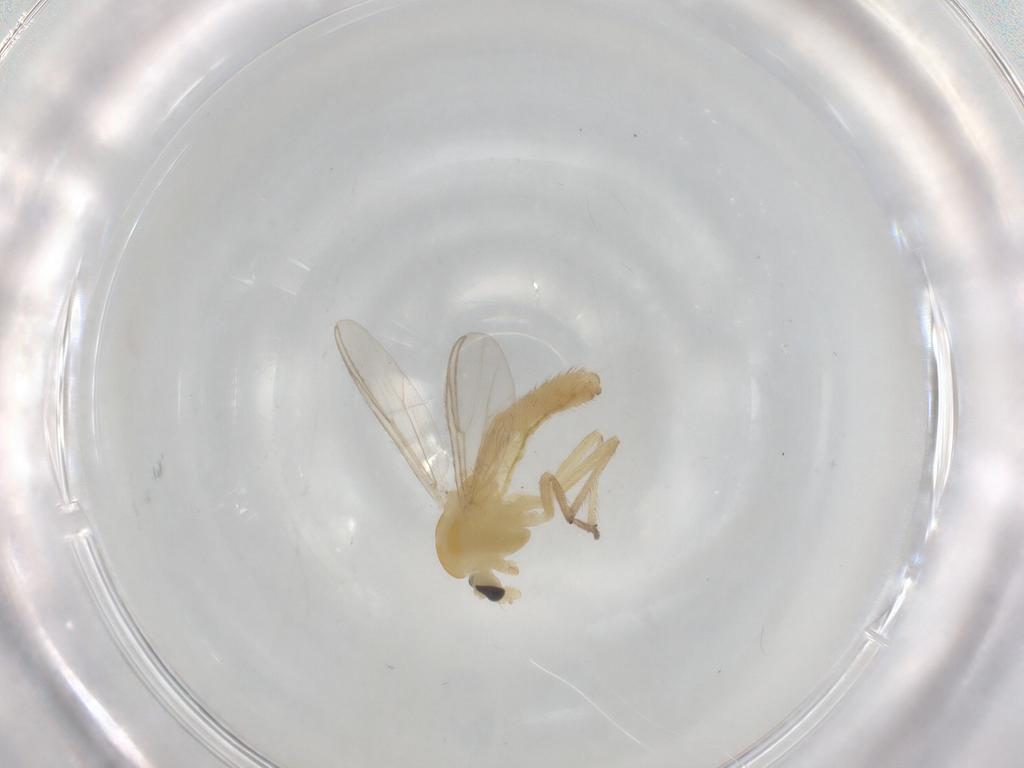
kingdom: Animalia
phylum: Arthropoda
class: Insecta
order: Diptera
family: Chironomidae
